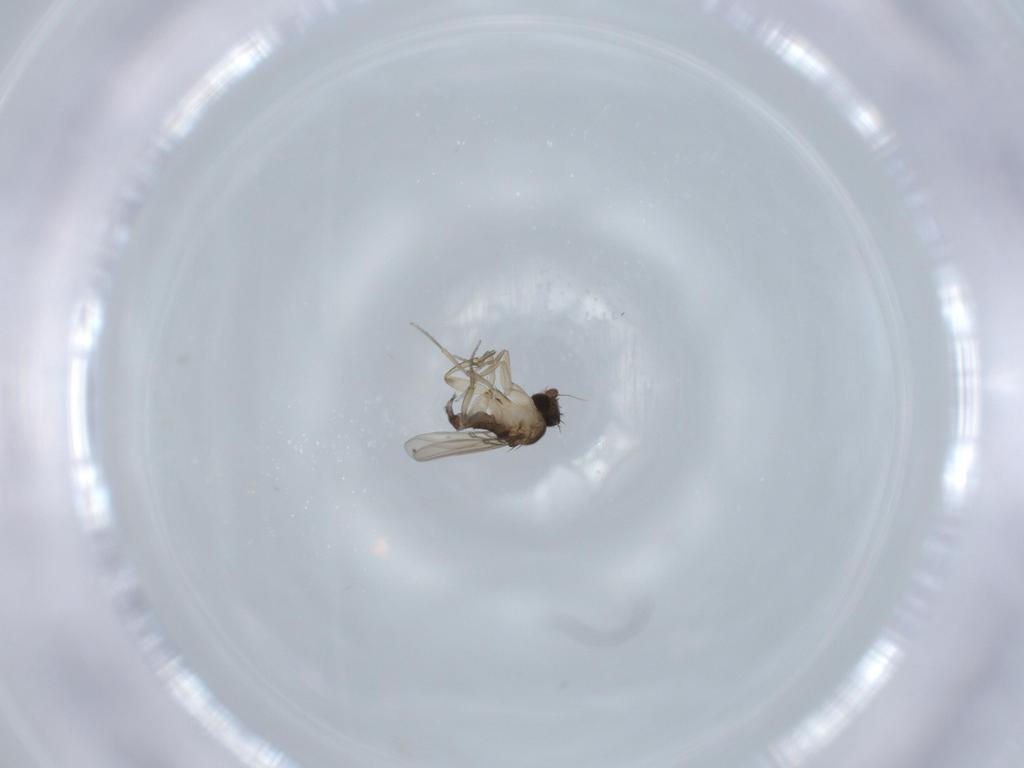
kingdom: Animalia
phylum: Arthropoda
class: Insecta
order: Diptera
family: Phoridae
